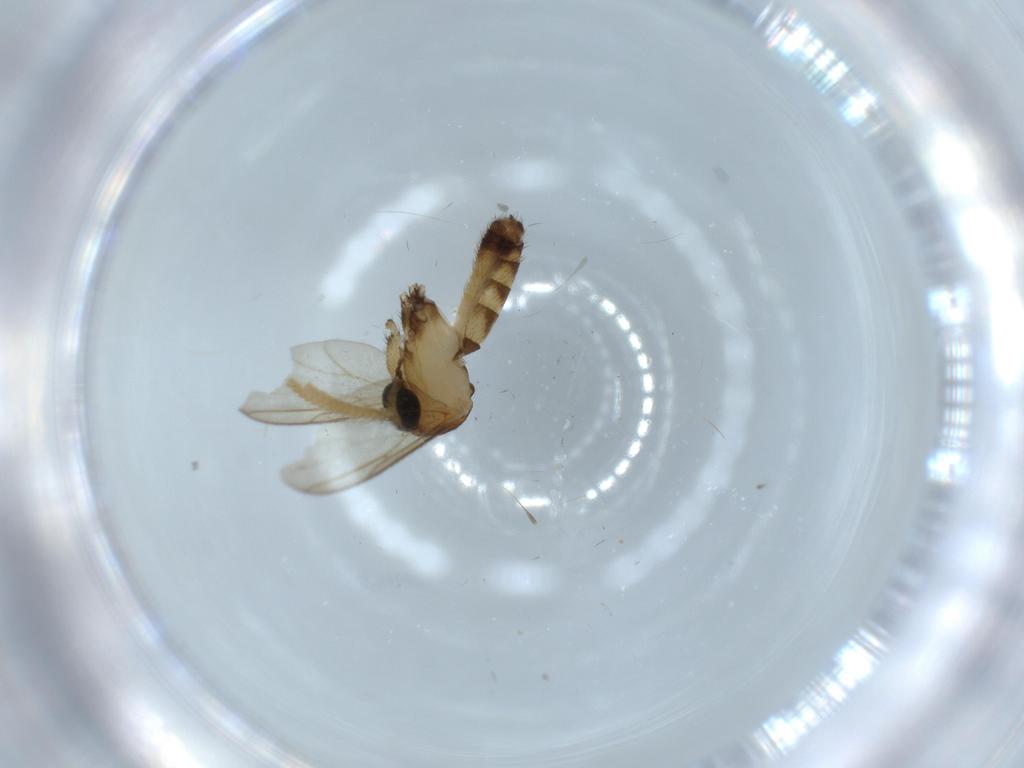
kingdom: Animalia
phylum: Arthropoda
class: Insecta
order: Diptera
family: Mycetophilidae
